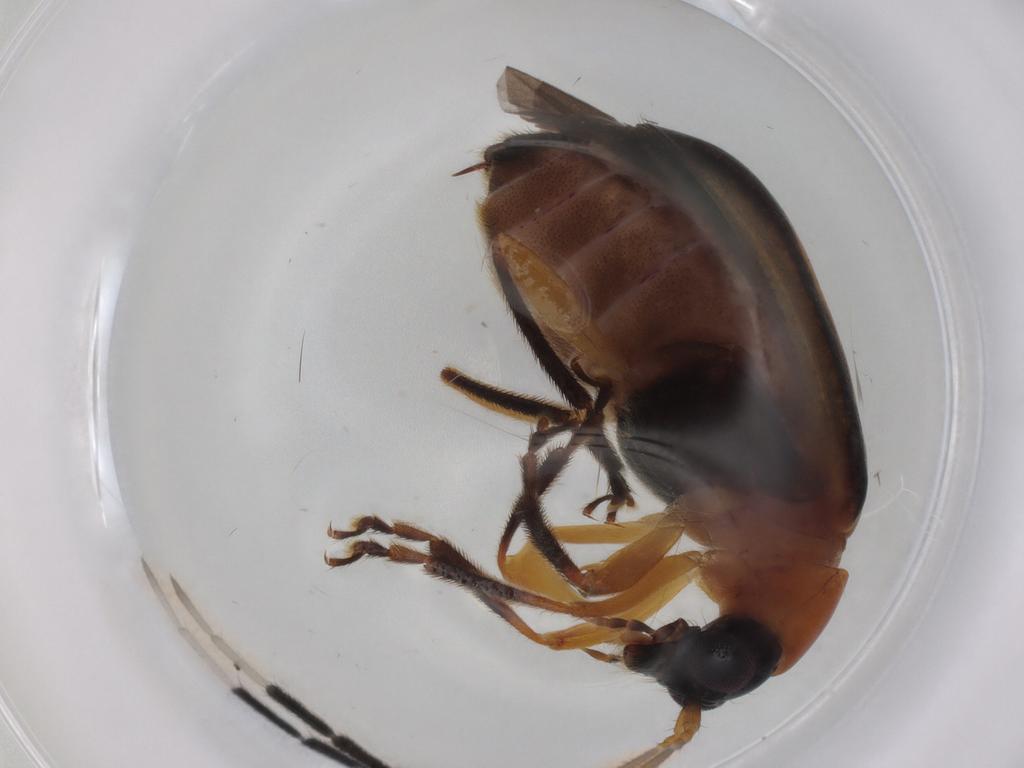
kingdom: Animalia
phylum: Arthropoda
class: Insecta
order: Coleoptera
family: Chrysomelidae
